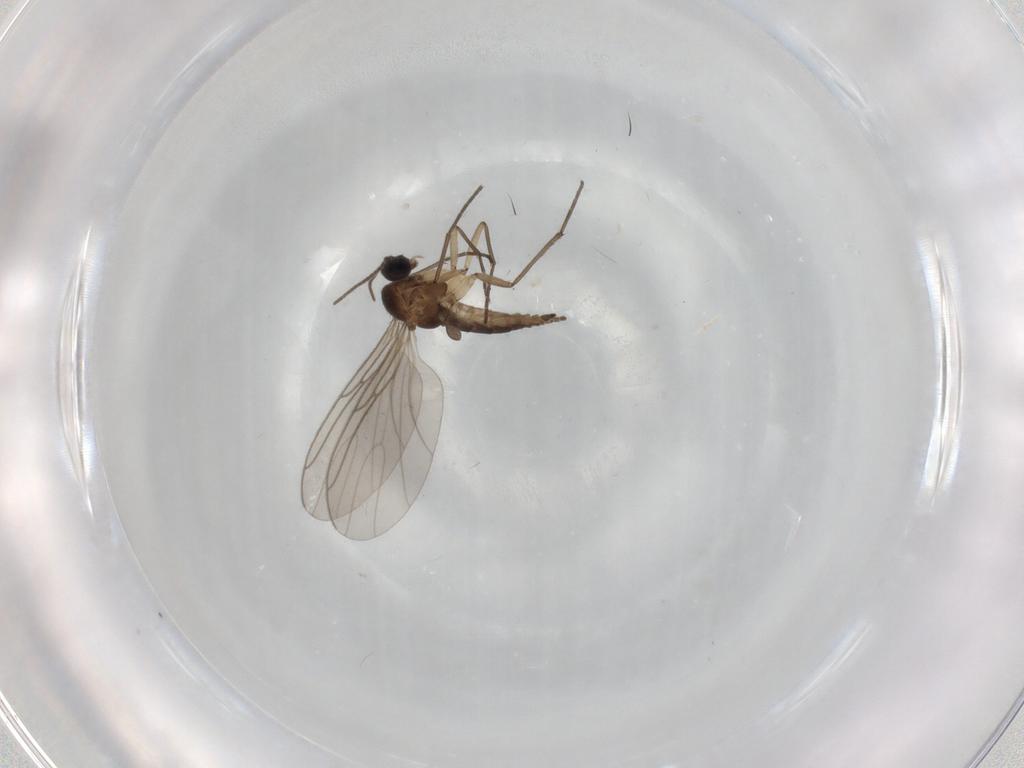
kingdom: Animalia
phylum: Arthropoda
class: Insecta
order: Diptera
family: Sciaridae
